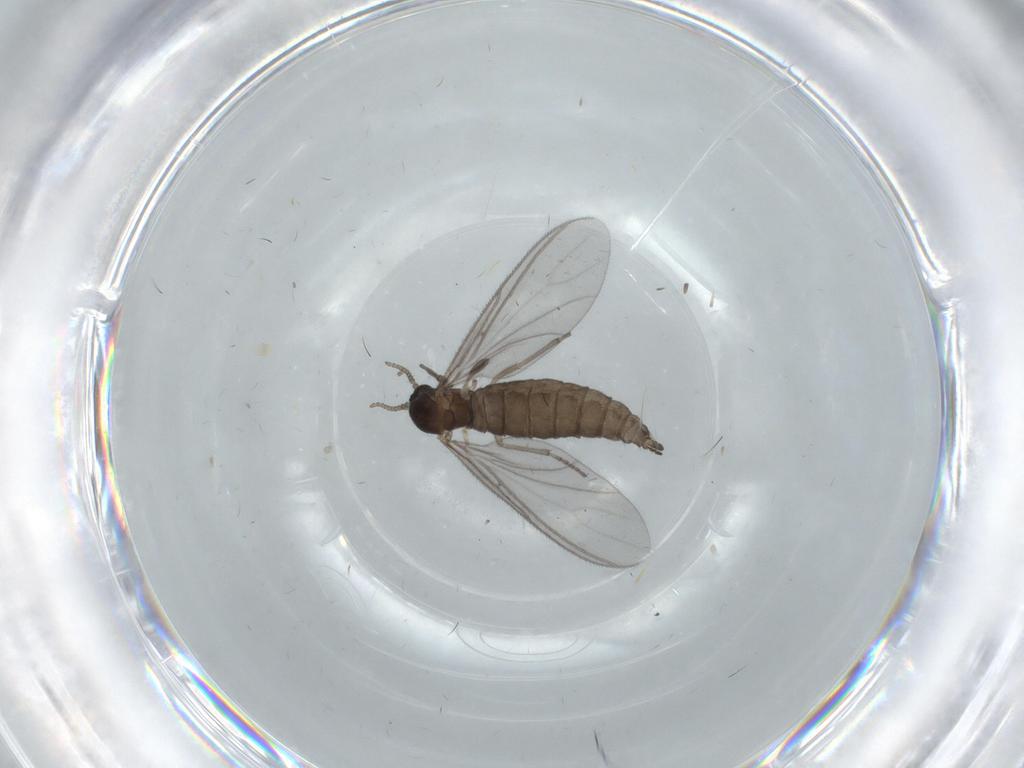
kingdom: Animalia
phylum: Arthropoda
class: Insecta
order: Diptera
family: Sciaridae
